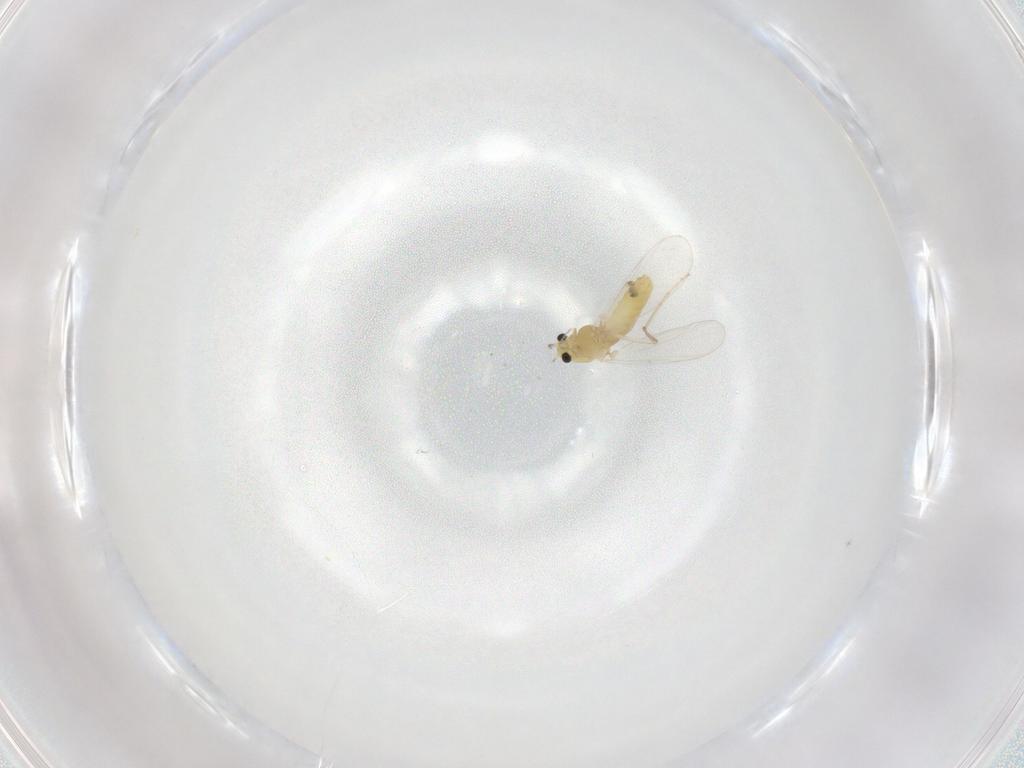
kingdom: Animalia
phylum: Arthropoda
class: Insecta
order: Diptera
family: Chironomidae
